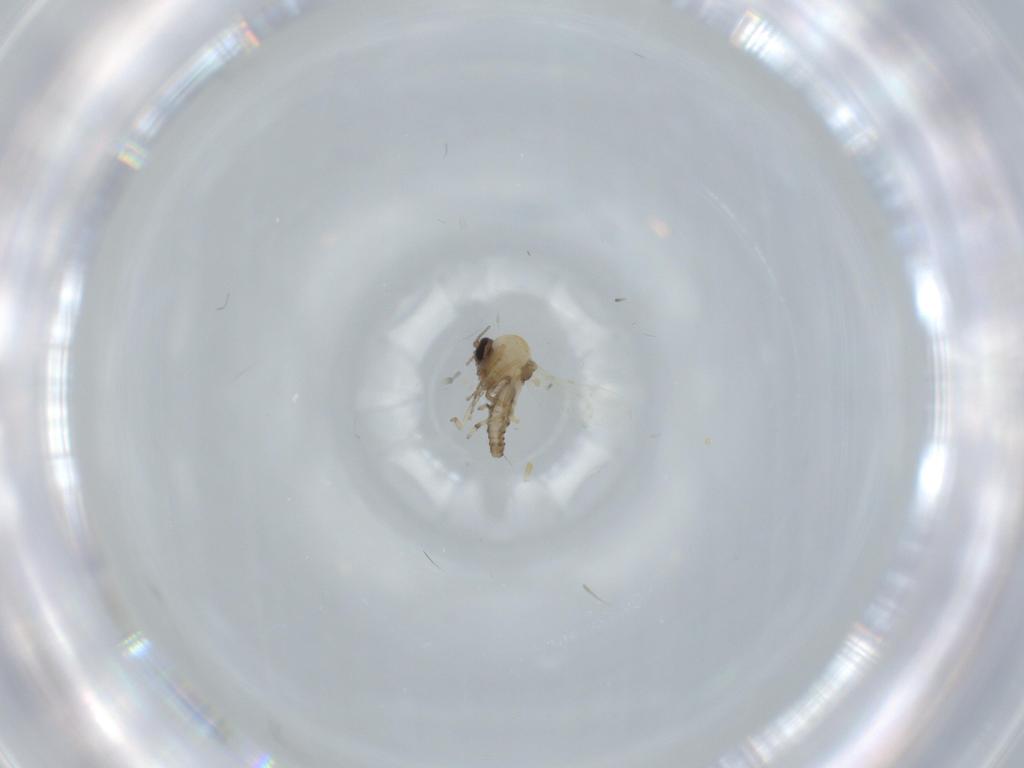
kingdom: Animalia
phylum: Arthropoda
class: Insecta
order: Diptera
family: Ceratopogonidae
